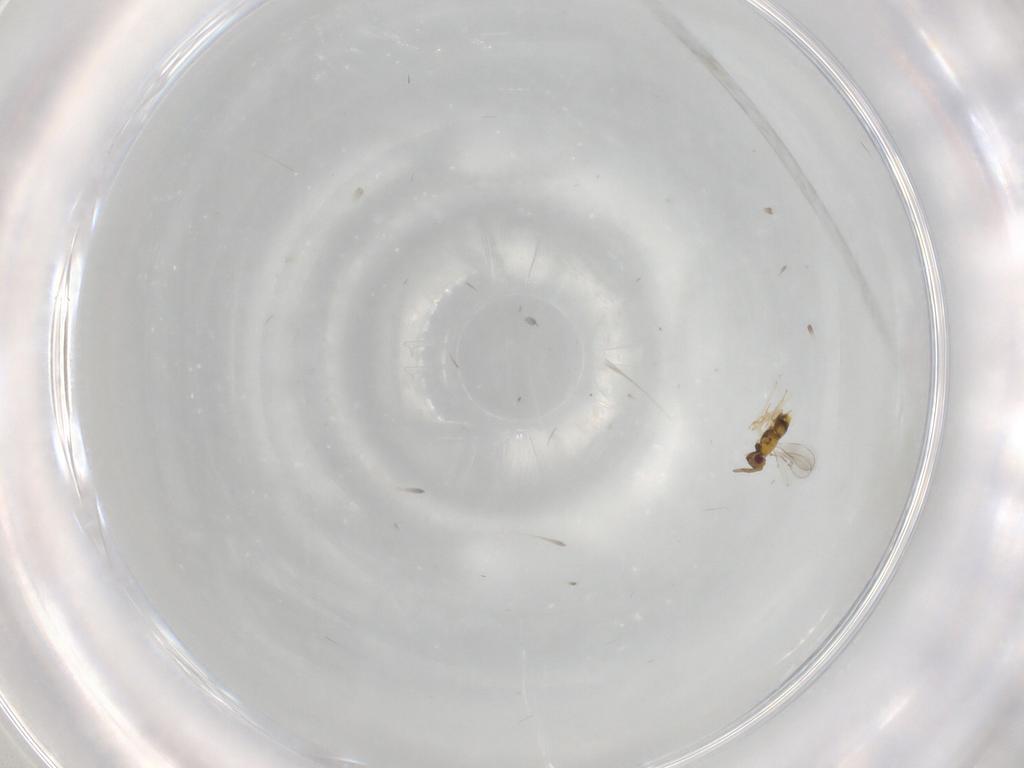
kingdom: Animalia
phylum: Arthropoda
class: Insecta
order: Hymenoptera
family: Aphelinidae
